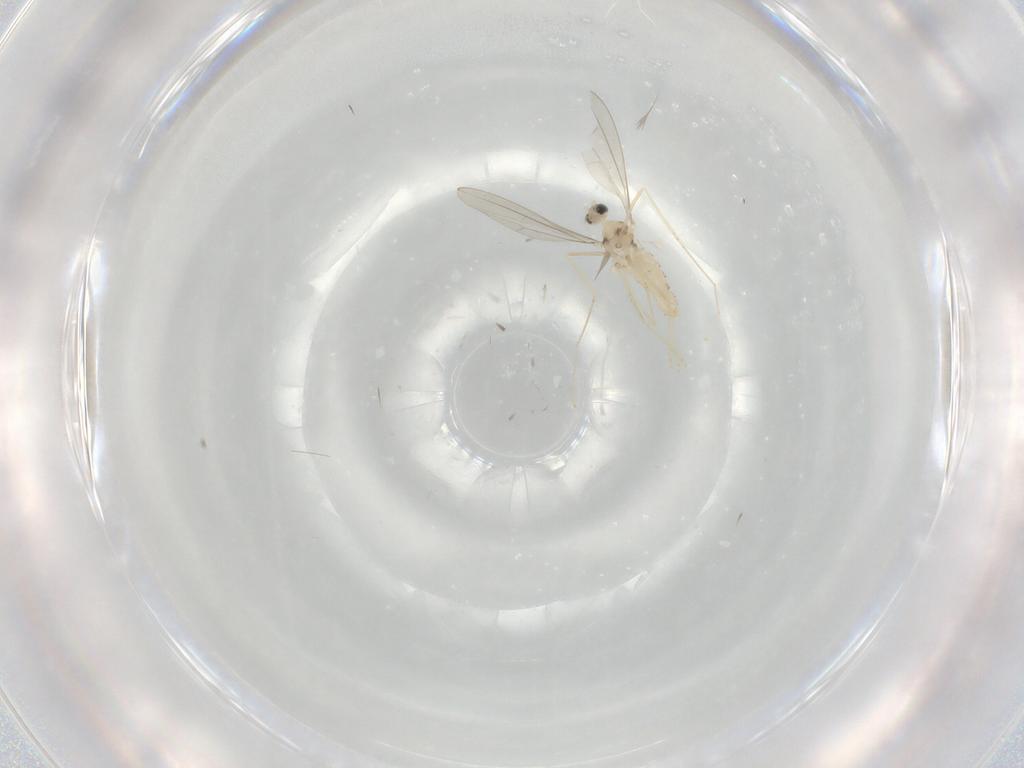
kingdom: Animalia
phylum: Arthropoda
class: Insecta
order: Diptera
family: Cecidomyiidae
